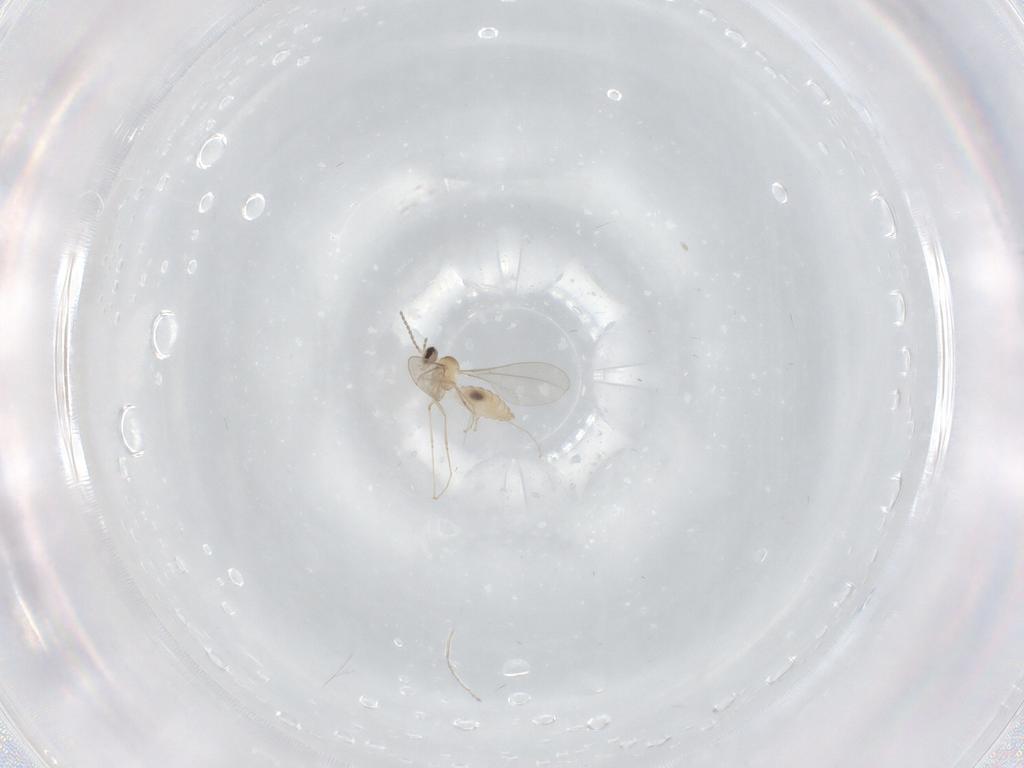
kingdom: Animalia
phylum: Arthropoda
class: Insecta
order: Diptera
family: Cecidomyiidae
